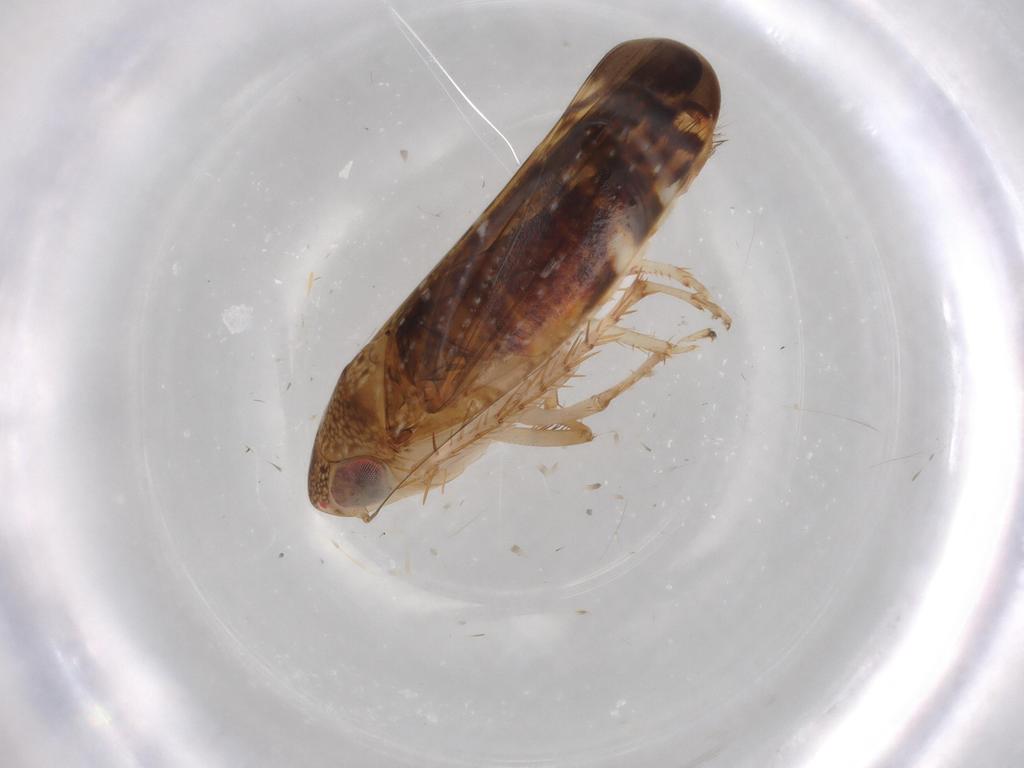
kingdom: Animalia
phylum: Arthropoda
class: Insecta
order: Hemiptera
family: Cicadellidae
